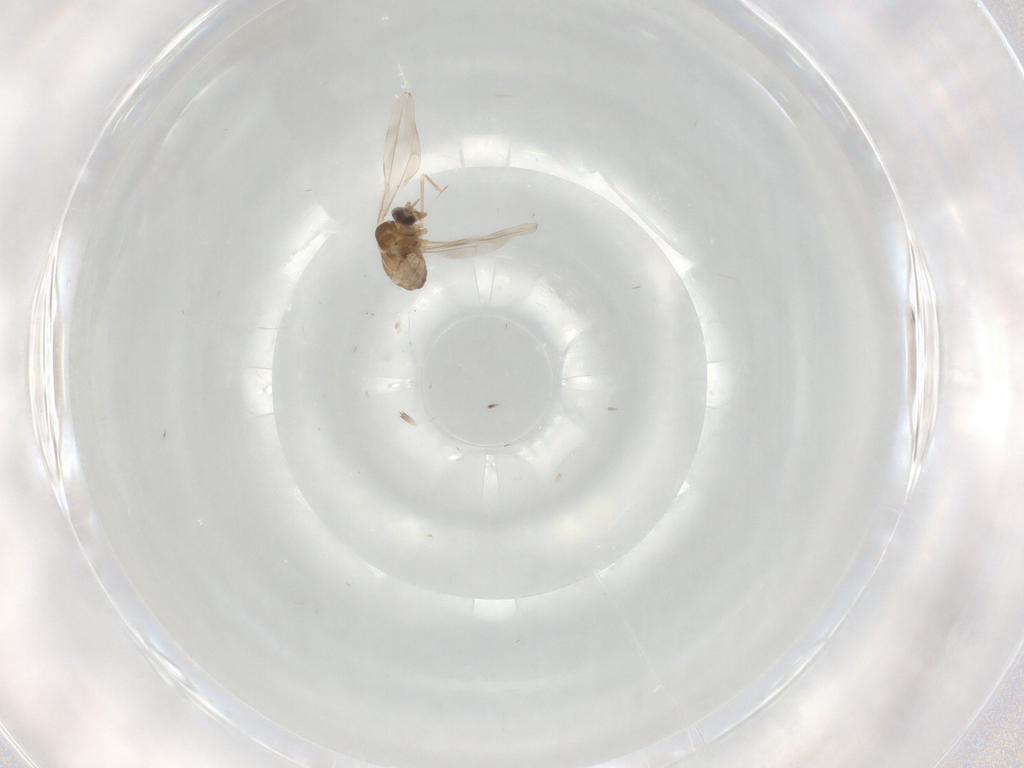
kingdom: Animalia
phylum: Arthropoda
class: Insecta
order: Diptera
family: Cecidomyiidae
